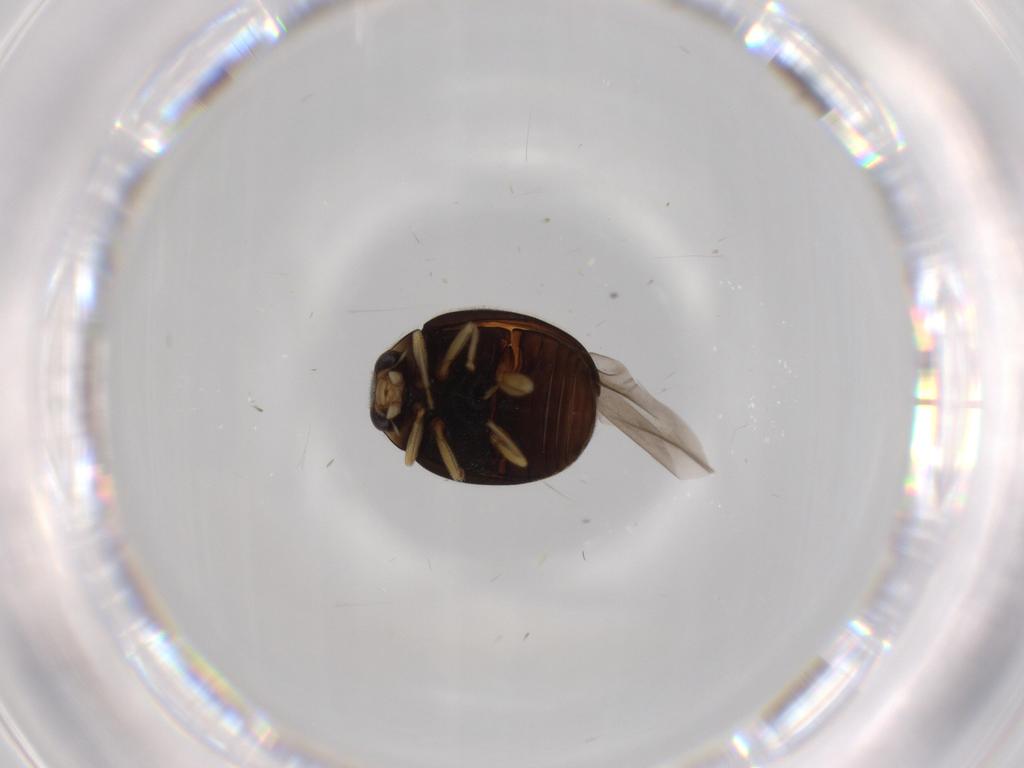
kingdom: Animalia
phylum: Arthropoda
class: Insecta
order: Coleoptera
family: Coccinellidae
